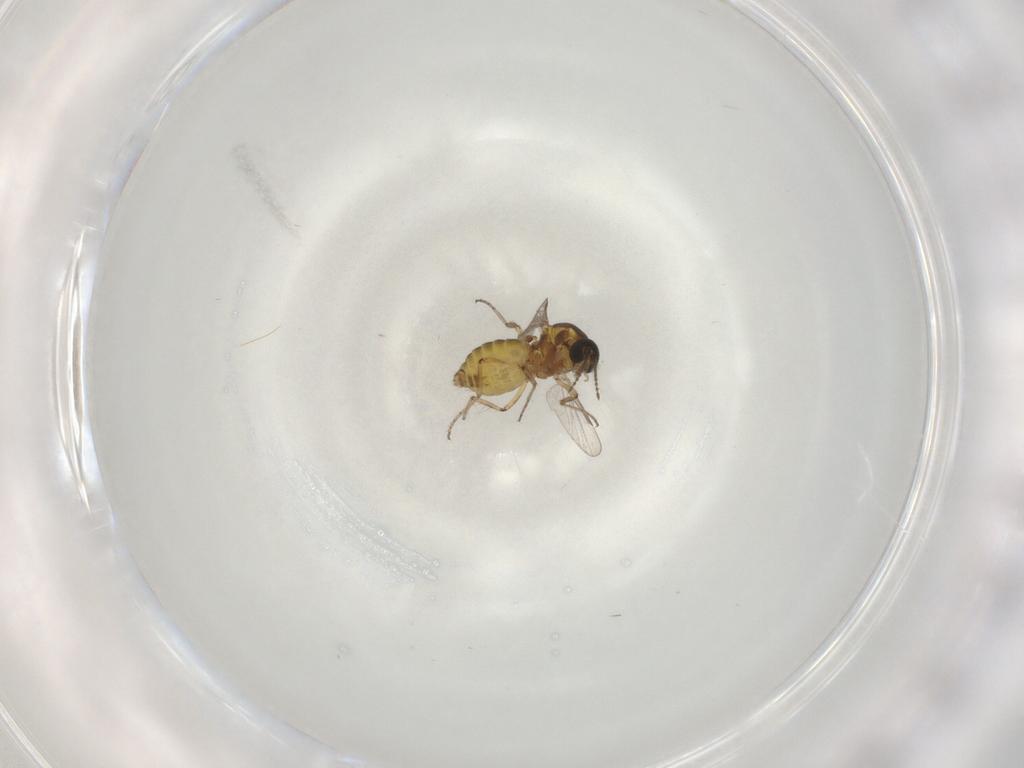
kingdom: Animalia
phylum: Arthropoda
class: Insecta
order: Diptera
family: Ceratopogonidae
